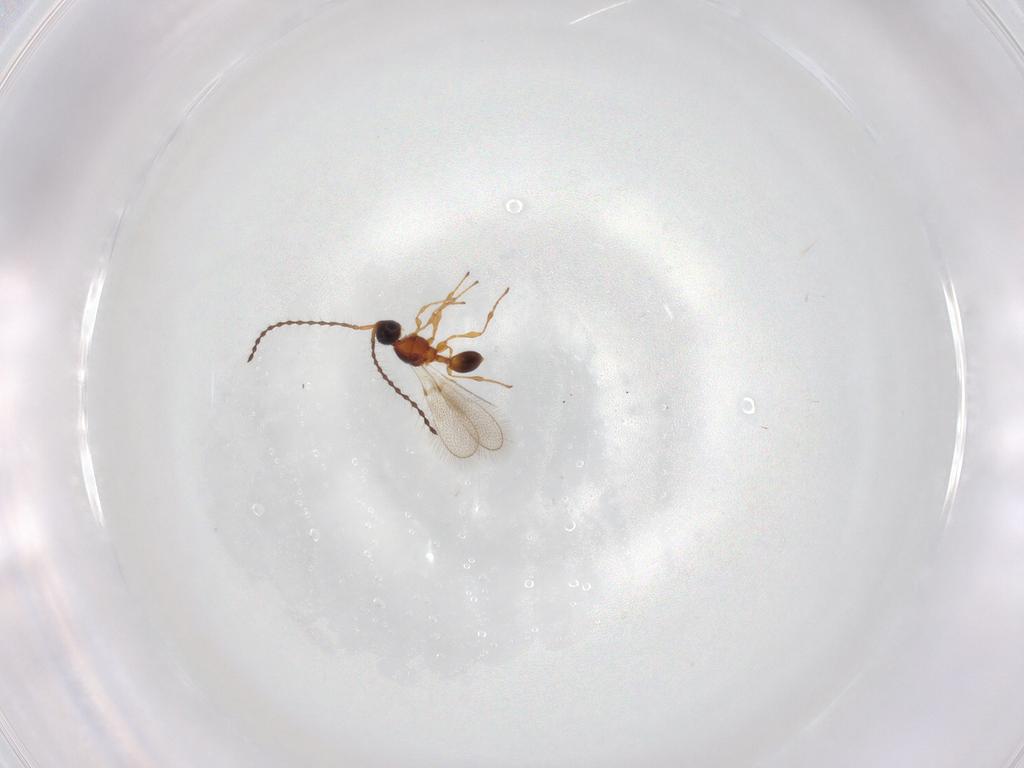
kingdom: Animalia
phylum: Arthropoda
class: Insecta
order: Hymenoptera
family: Diapriidae
